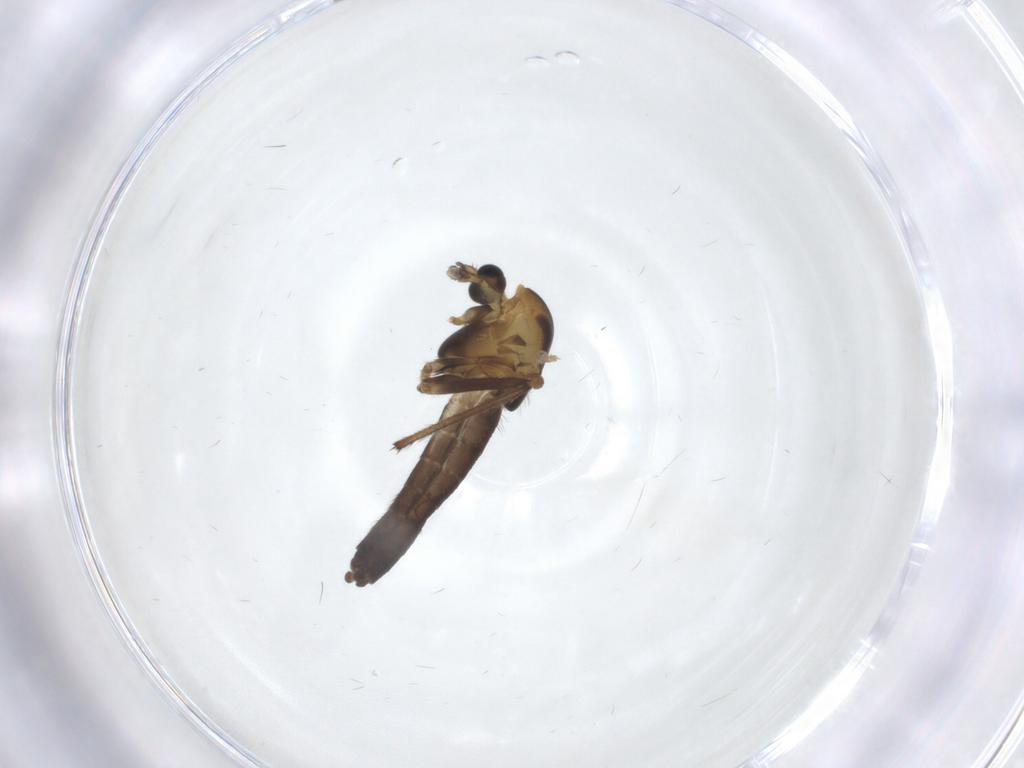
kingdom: Animalia
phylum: Arthropoda
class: Insecta
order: Diptera
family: Chironomidae
